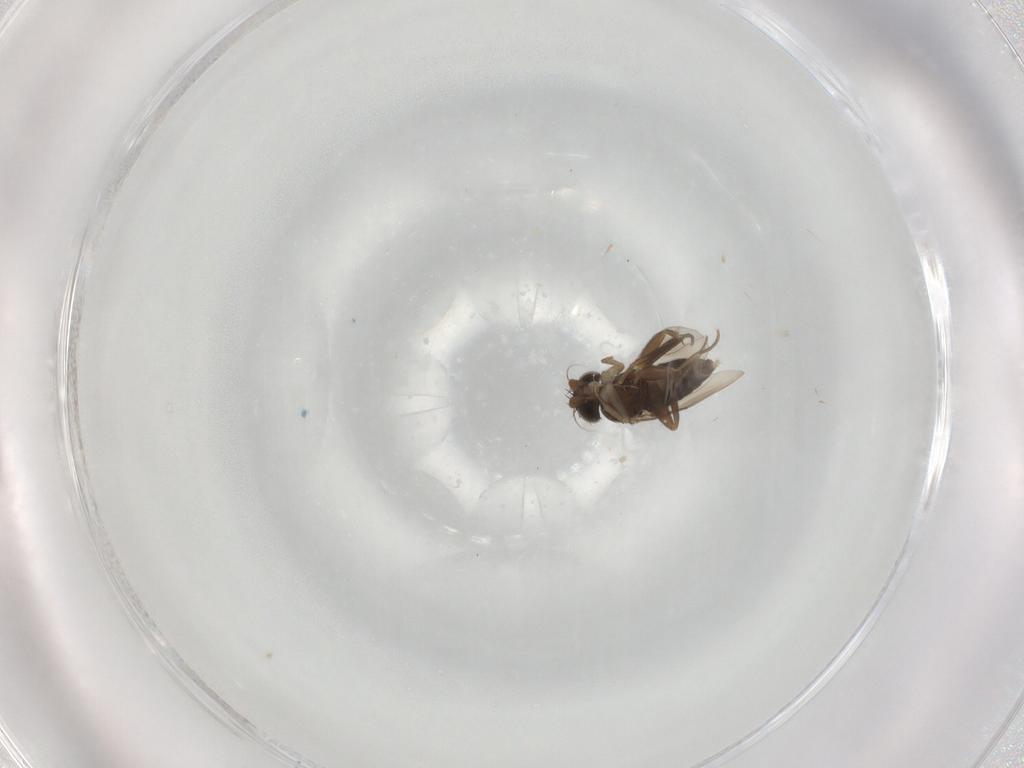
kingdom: Animalia
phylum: Arthropoda
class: Insecta
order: Diptera
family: Phoridae
